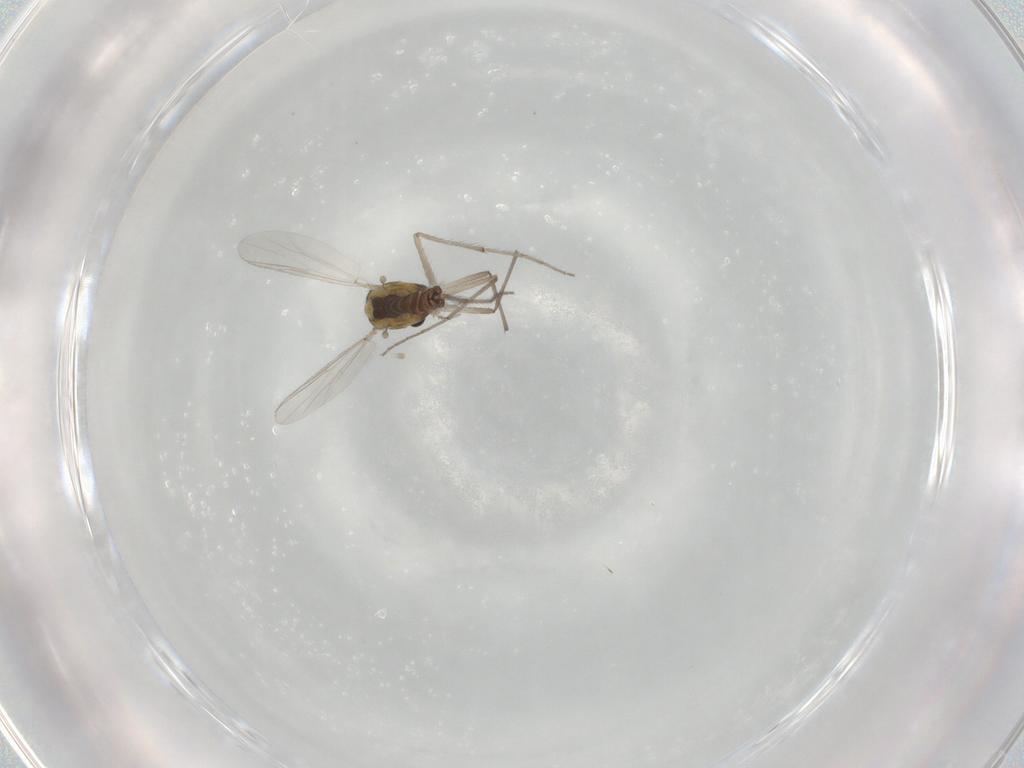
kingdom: Animalia
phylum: Arthropoda
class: Insecta
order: Diptera
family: Chironomidae
